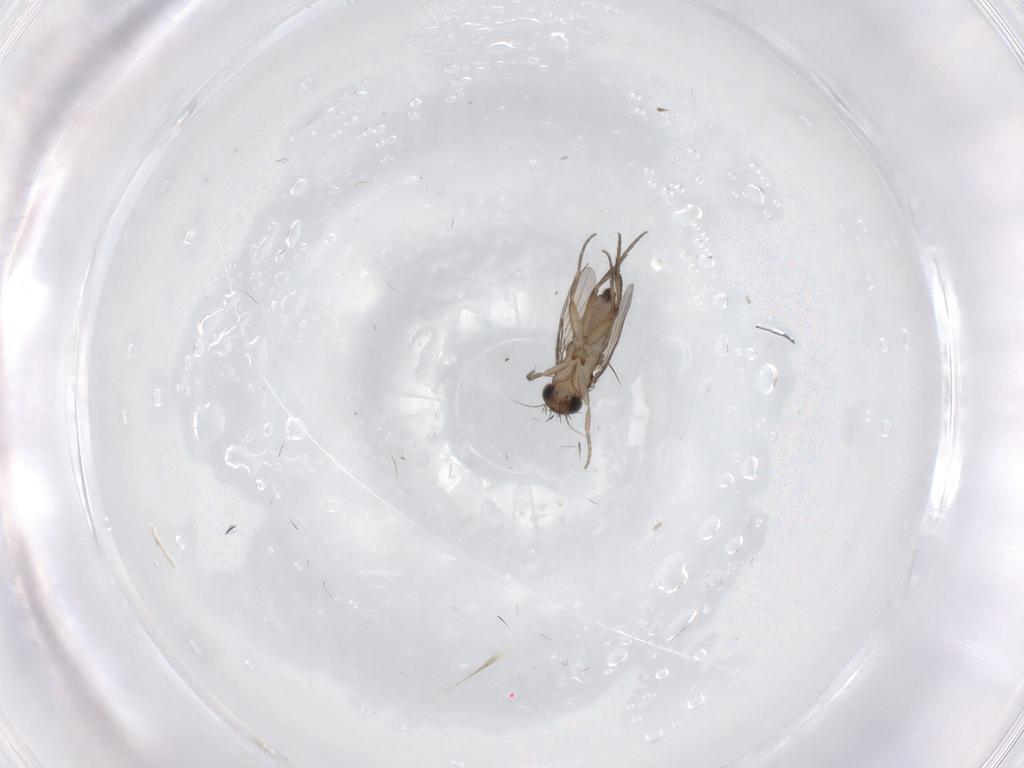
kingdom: Animalia
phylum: Arthropoda
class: Insecta
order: Diptera
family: Phoridae
